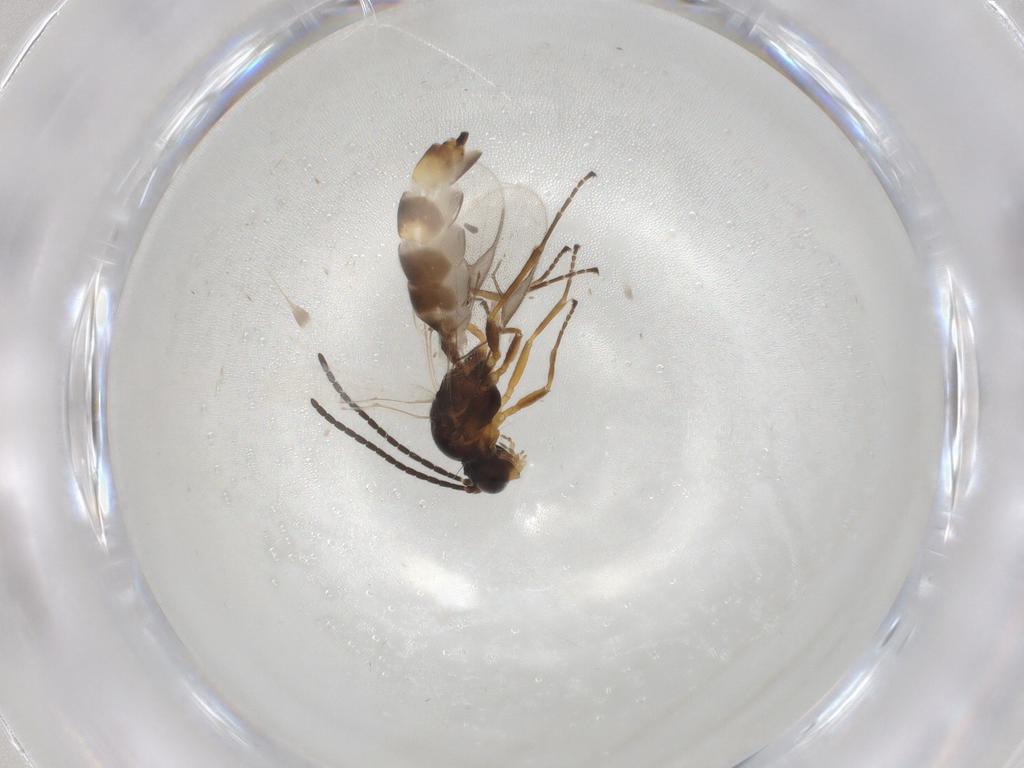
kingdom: Animalia
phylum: Arthropoda
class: Insecta
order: Hymenoptera
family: Braconidae
